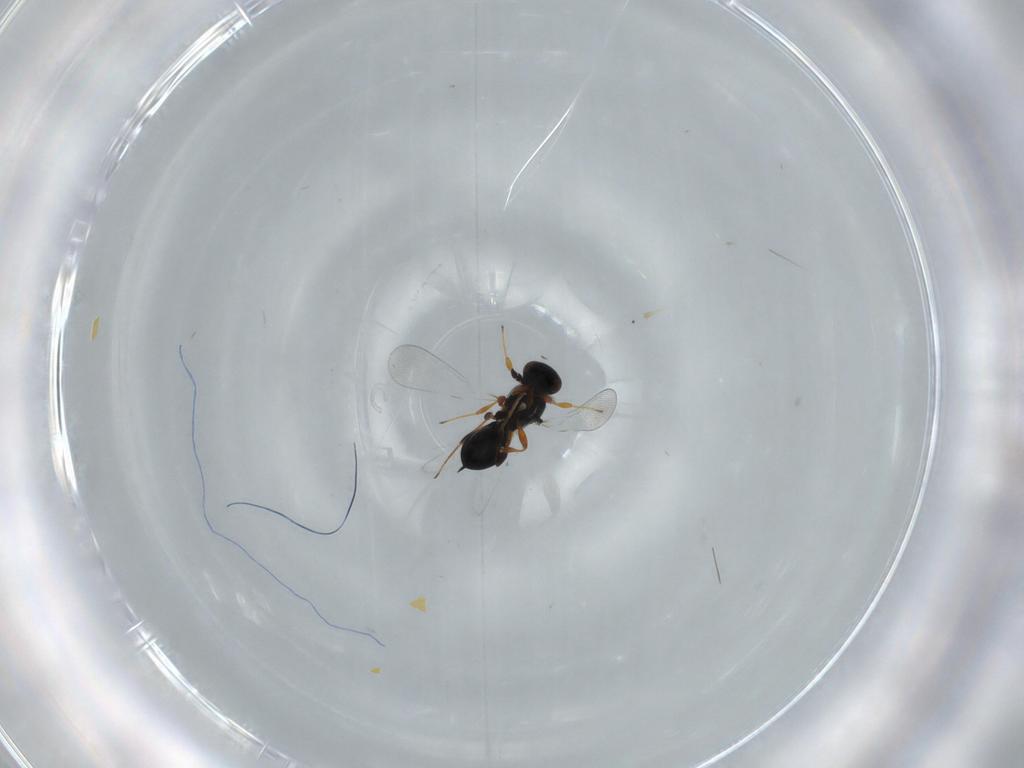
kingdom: Animalia
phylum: Arthropoda
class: Insecta
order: Hymenoptera
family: Platygastridae
